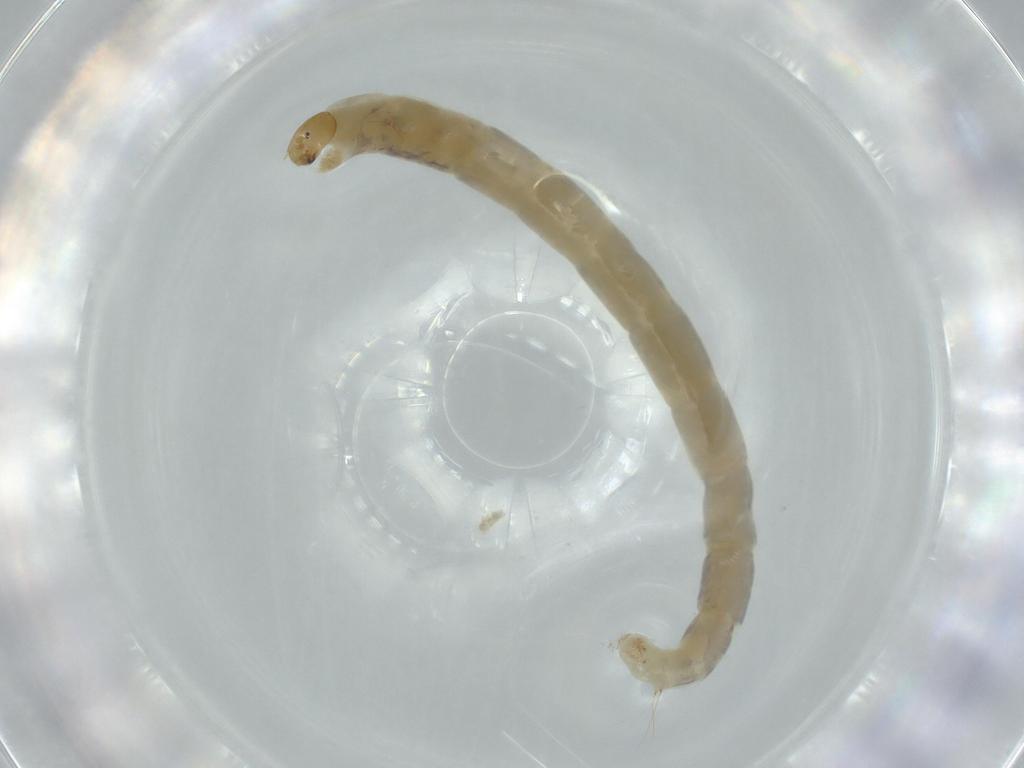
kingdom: Animalia
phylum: Arthropoda
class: Insecta
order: Diptera
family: Chironomidae
